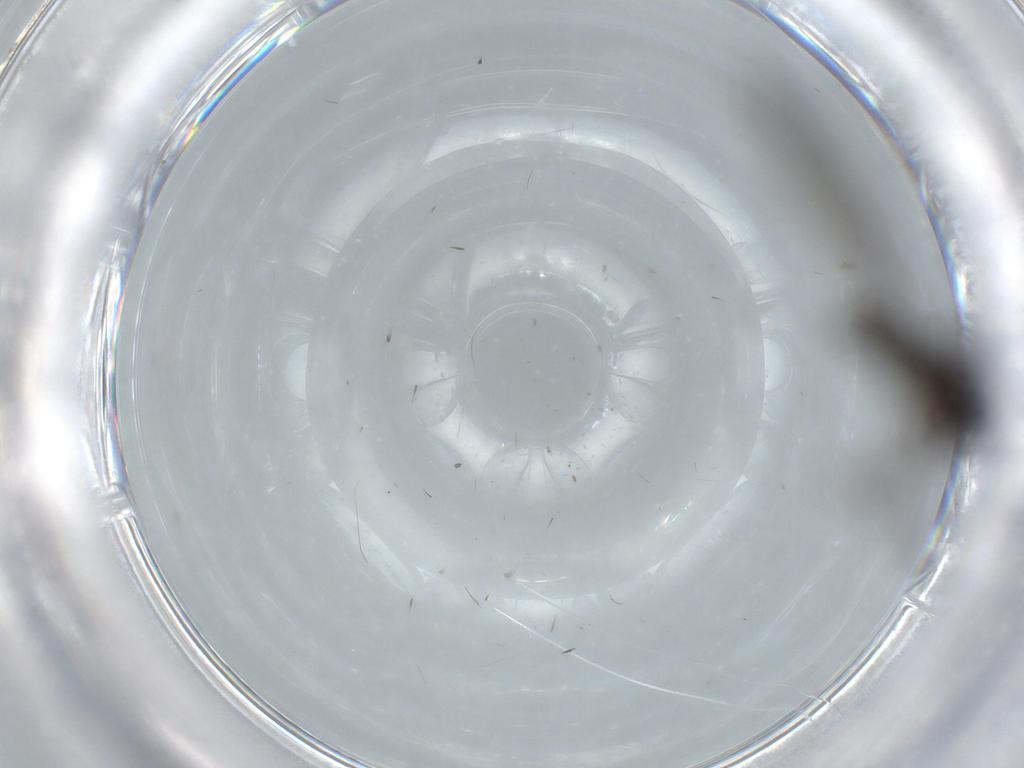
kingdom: Animalia
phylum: Arthropoda
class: Insecta
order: Diptera
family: Sciaridae
